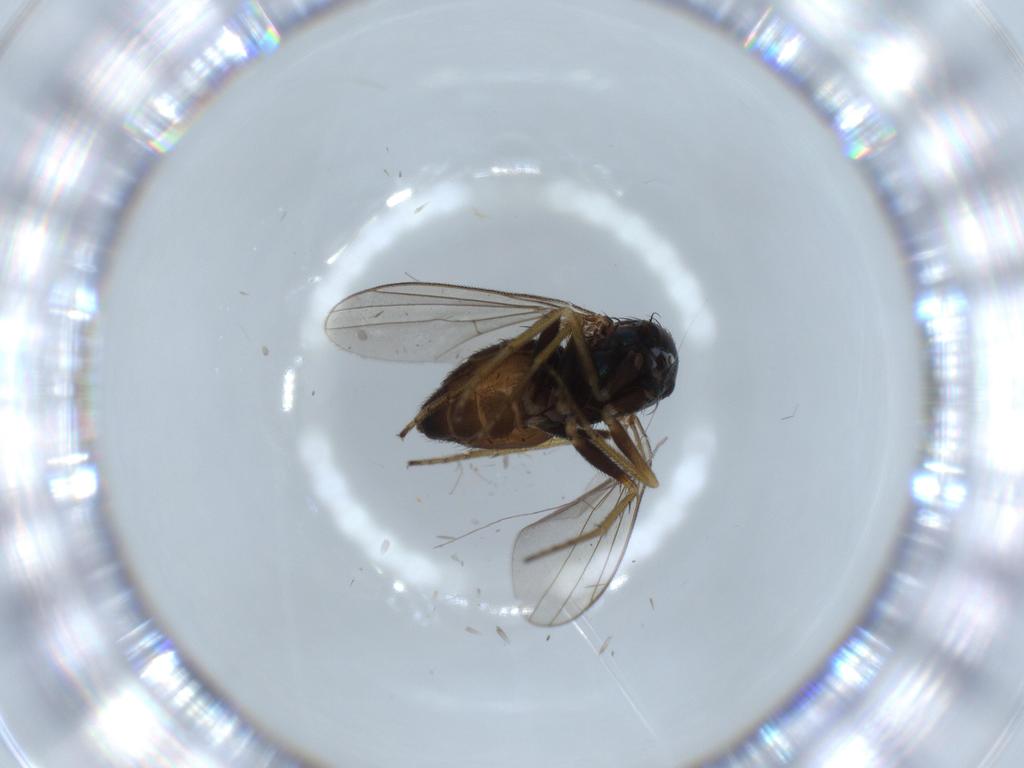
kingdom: Animalia
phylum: Arthropoda
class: Insecta
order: Diptera
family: Dolichopodidae
